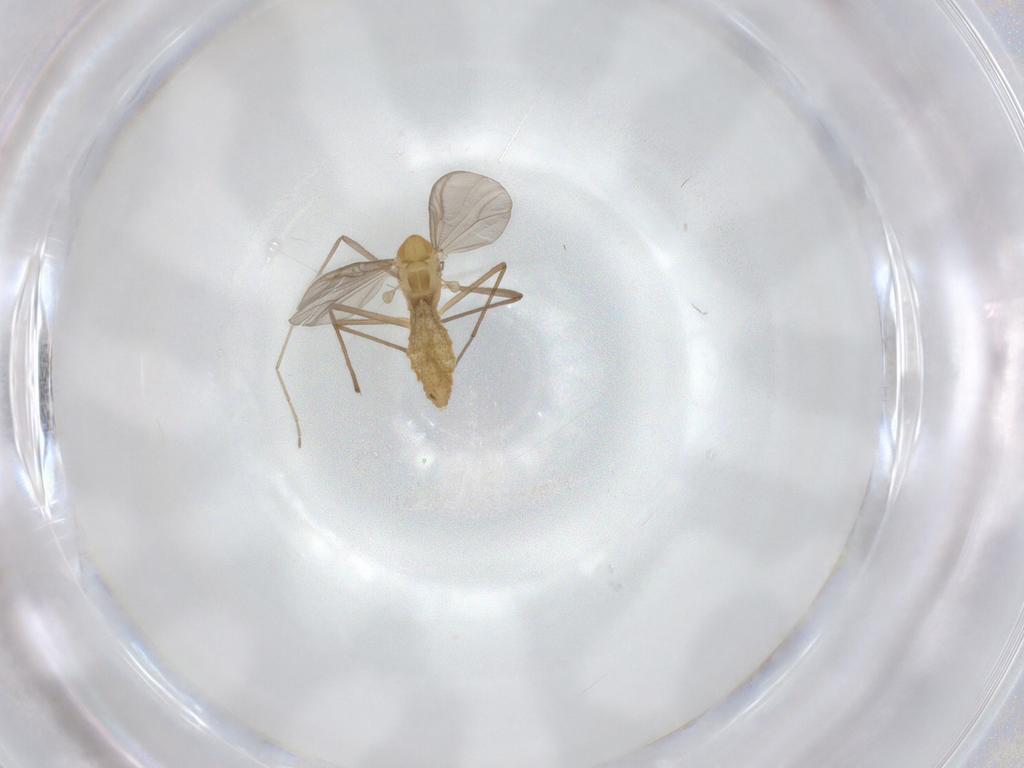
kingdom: Animalia
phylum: Arthropoda
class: Insecta
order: Diptera
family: Chironomidae
